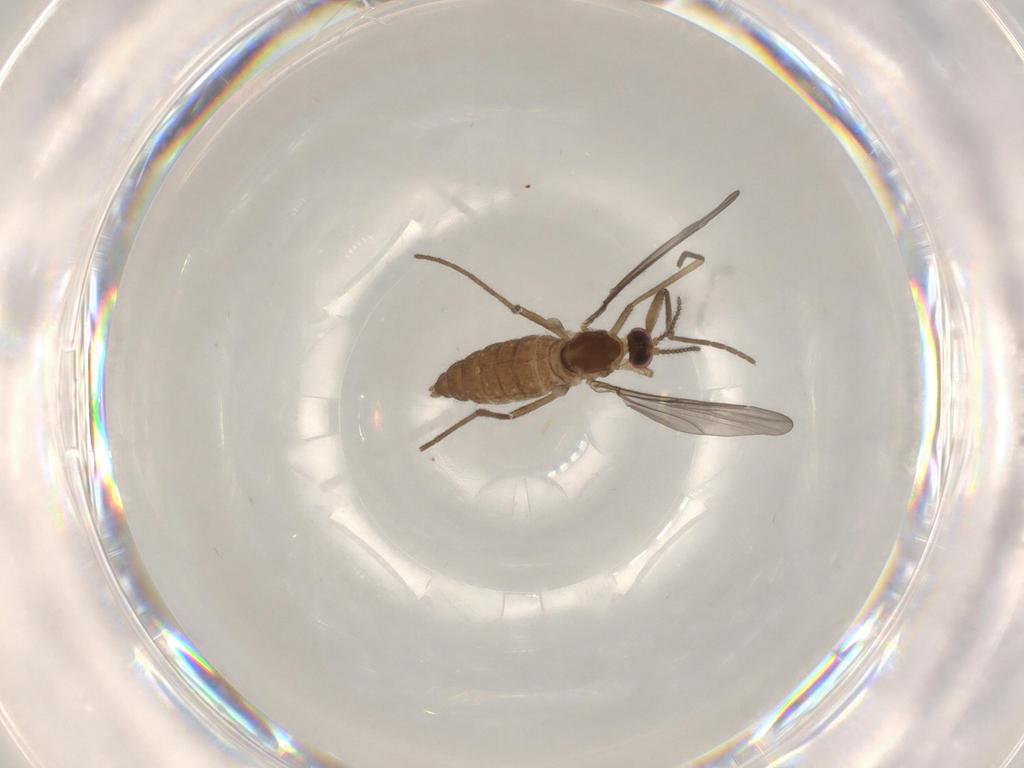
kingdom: Animalia
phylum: Arthropoda
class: Insecta
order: Diptera
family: Cecidomyiidae
